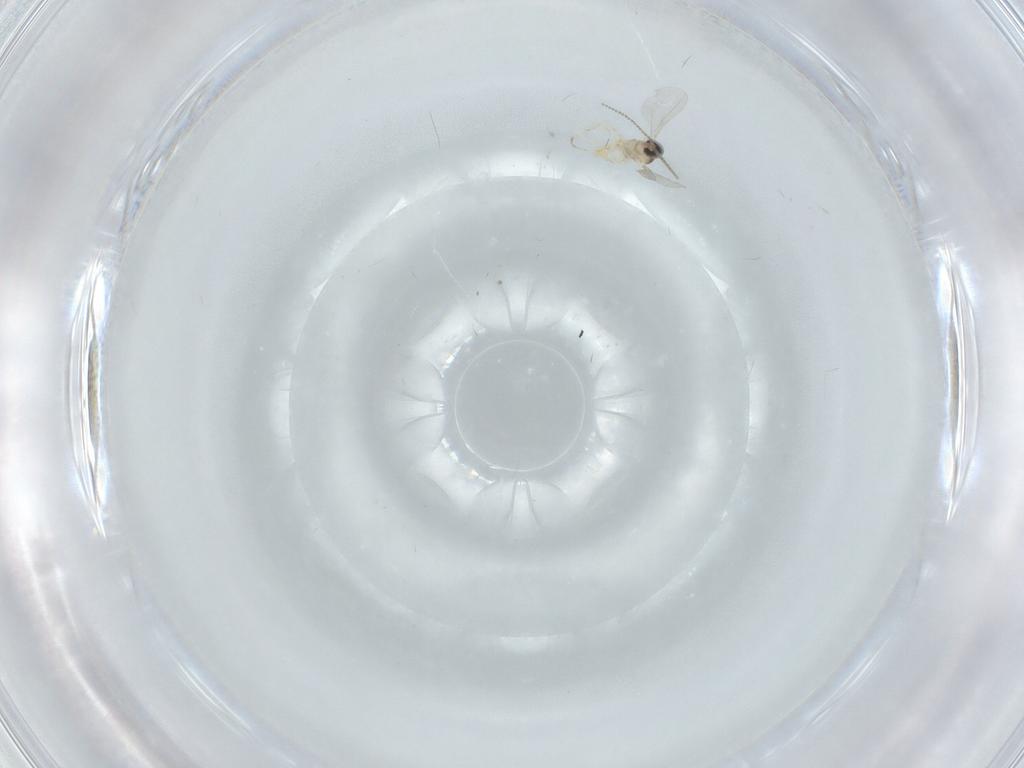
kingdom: Animalia
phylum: Arthropoda
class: Insecta
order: Diptera
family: Cecidomyiidae
